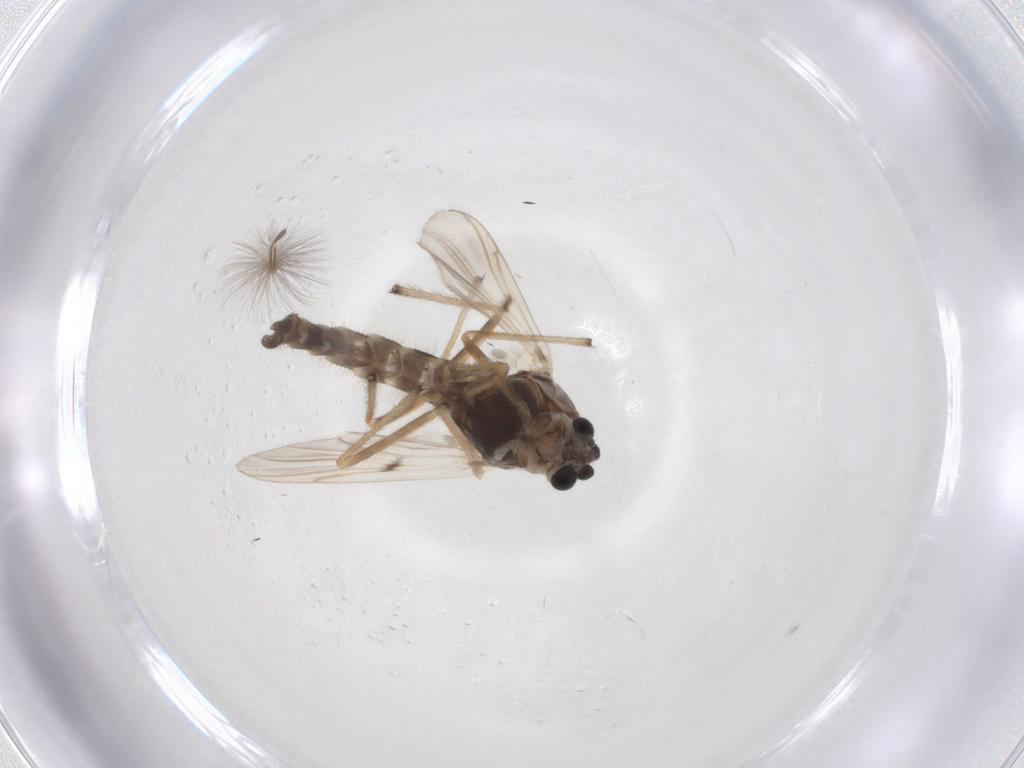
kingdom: Animalia
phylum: Arthropoda
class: Insecta
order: Diptera
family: Chironomidae
